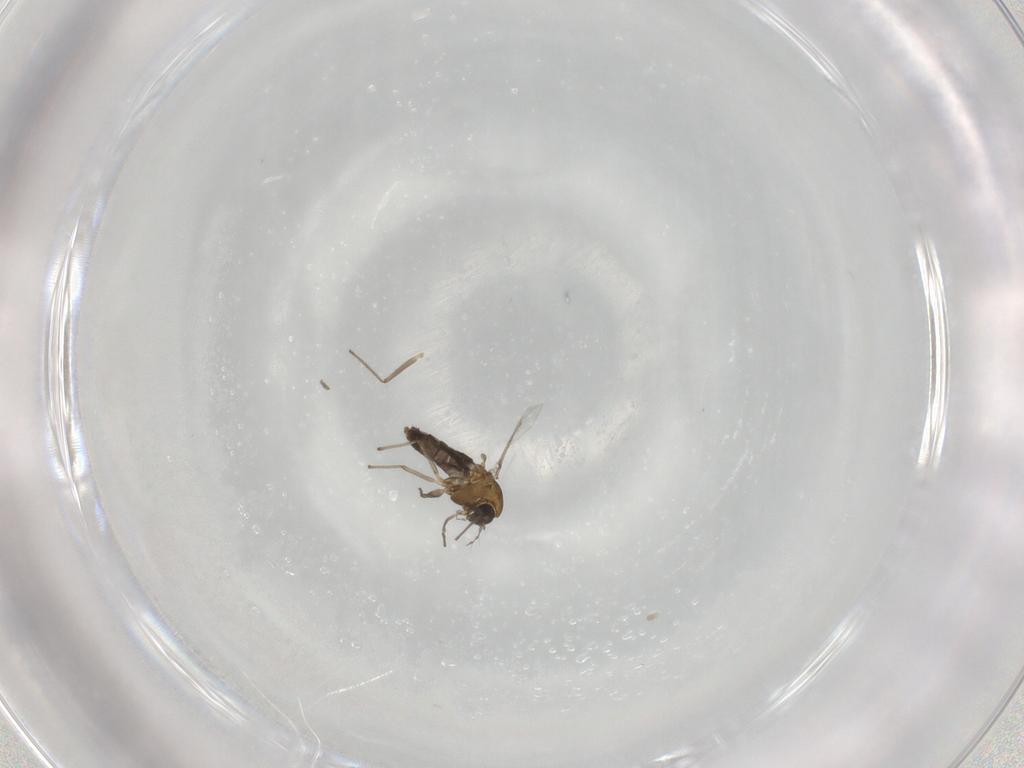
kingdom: Animalia
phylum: Arthropoda
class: Insecta
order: Diptera
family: Chironomidae
